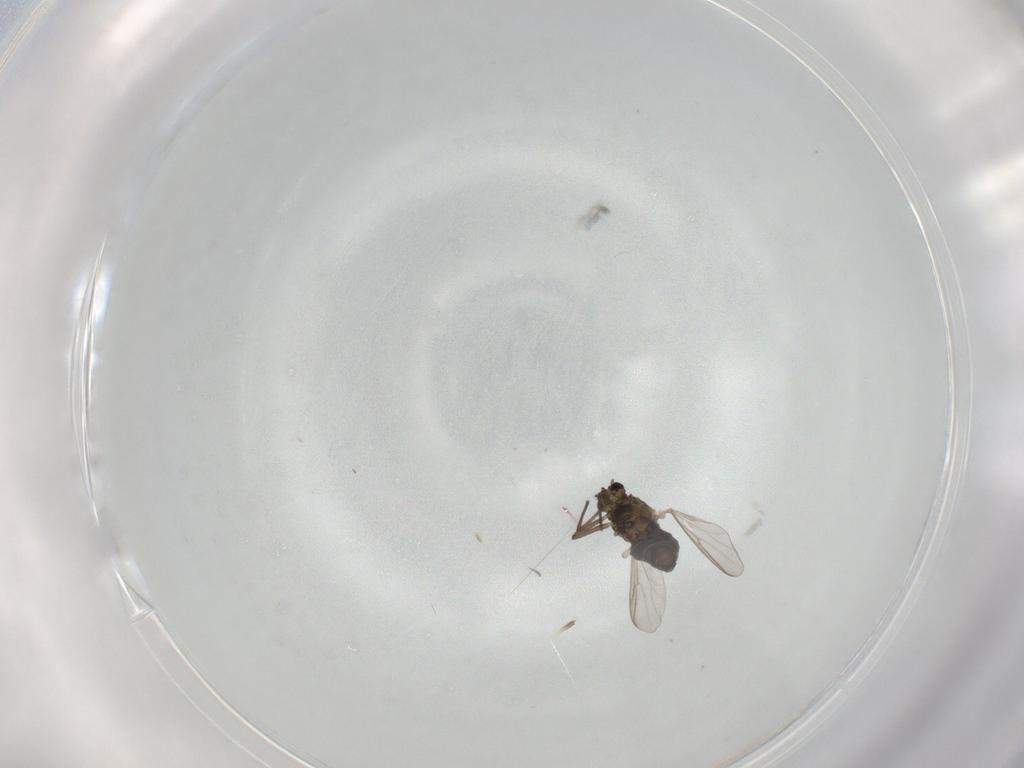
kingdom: Animalia
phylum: Arthropoda
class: Insecta
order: Diptera
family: Chironomidae
